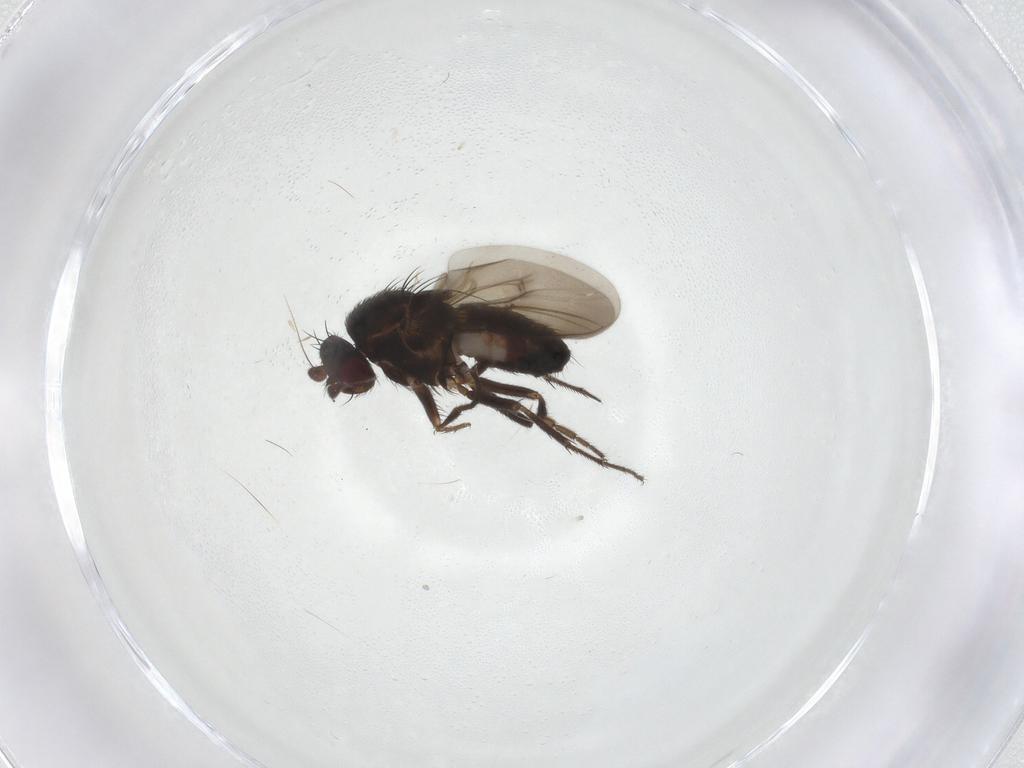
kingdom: Animalia
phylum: Arthropoda
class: Insecta
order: Diptera
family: Sphaeroceridae
